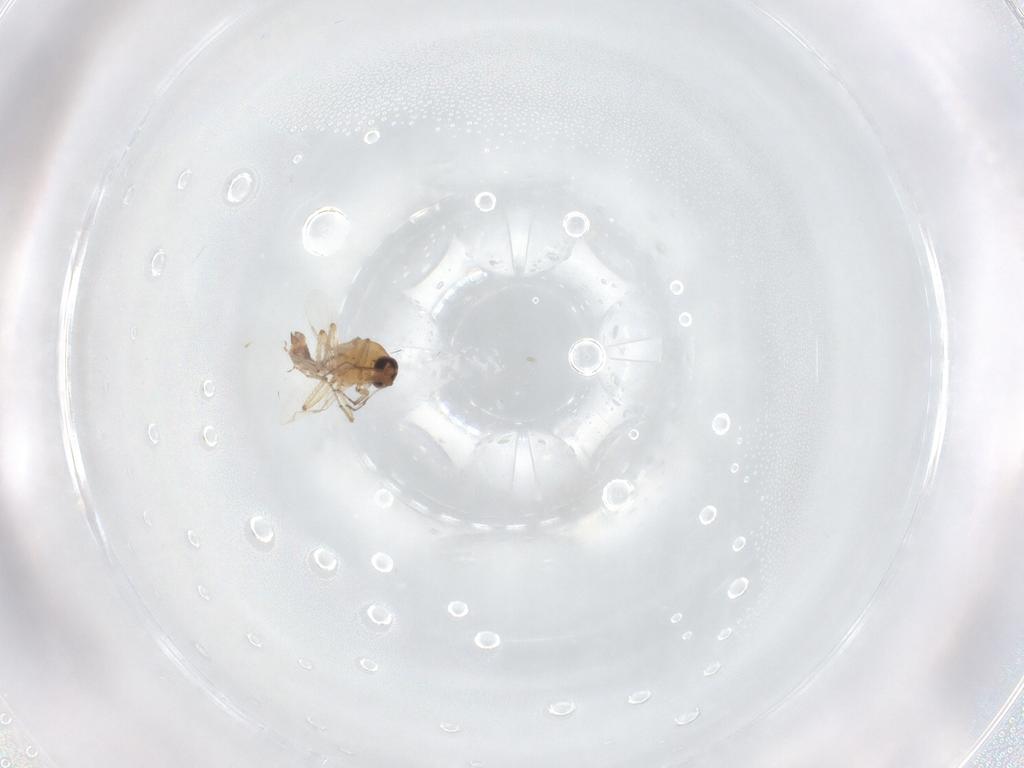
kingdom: Animalia
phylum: Arthropoda
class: Insecta
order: Diptera
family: Ceratopogonidae
